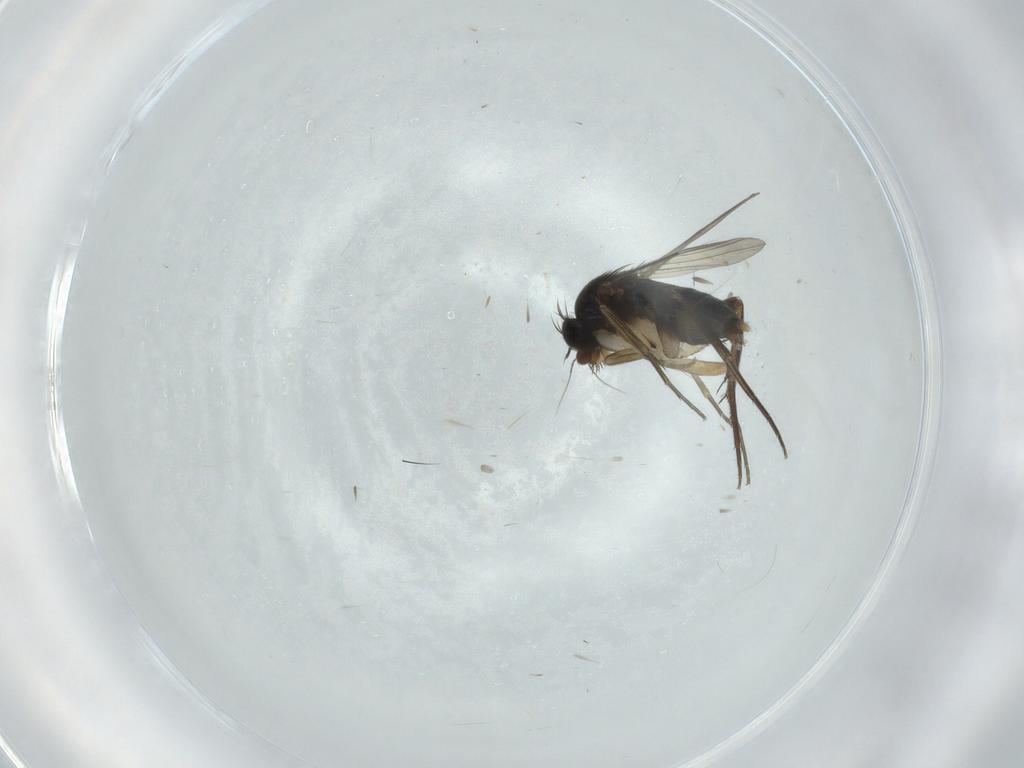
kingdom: Animalia
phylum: Arthropoda
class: Insecta
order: Diptera
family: Phoridae
